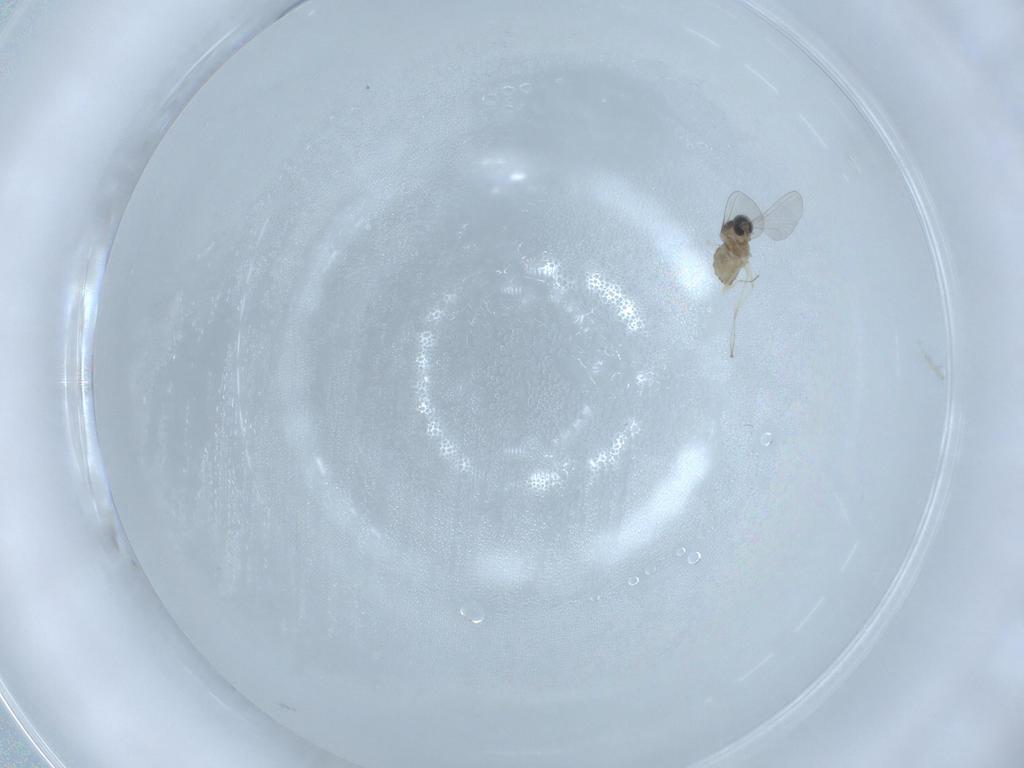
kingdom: Animalia
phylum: Arthropoda
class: Insecta
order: Diptera
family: Cecidomyiidae
